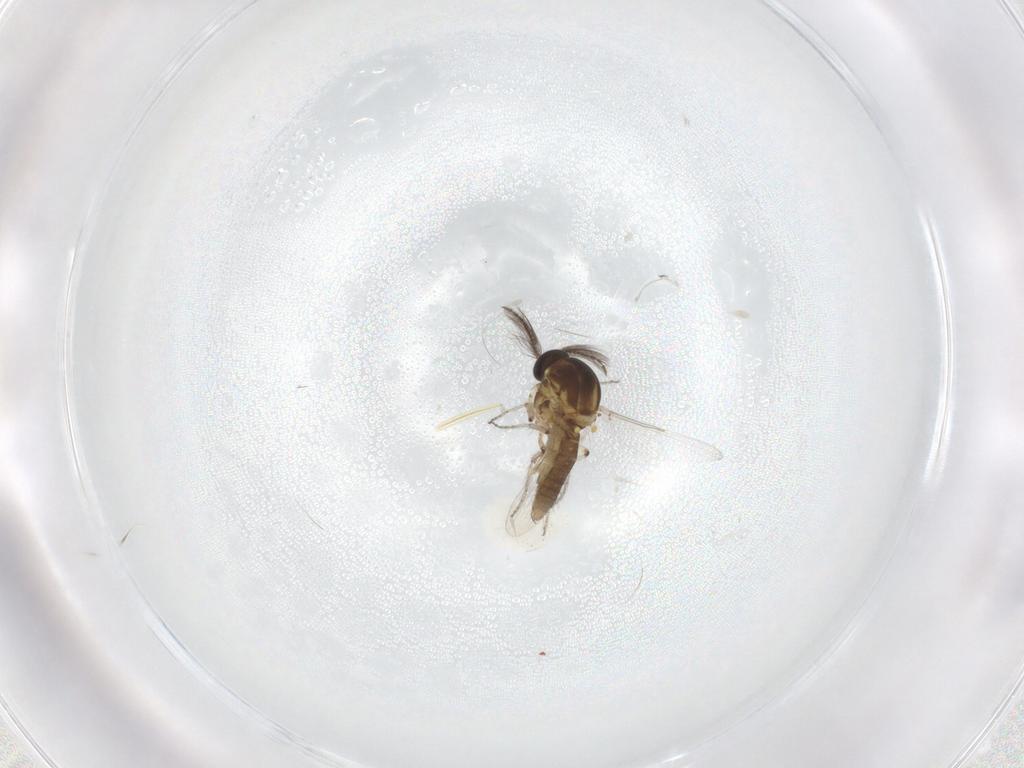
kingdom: Animalia
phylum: Arthropoda
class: Insecta
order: Diptera
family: Ceratopogonidae
